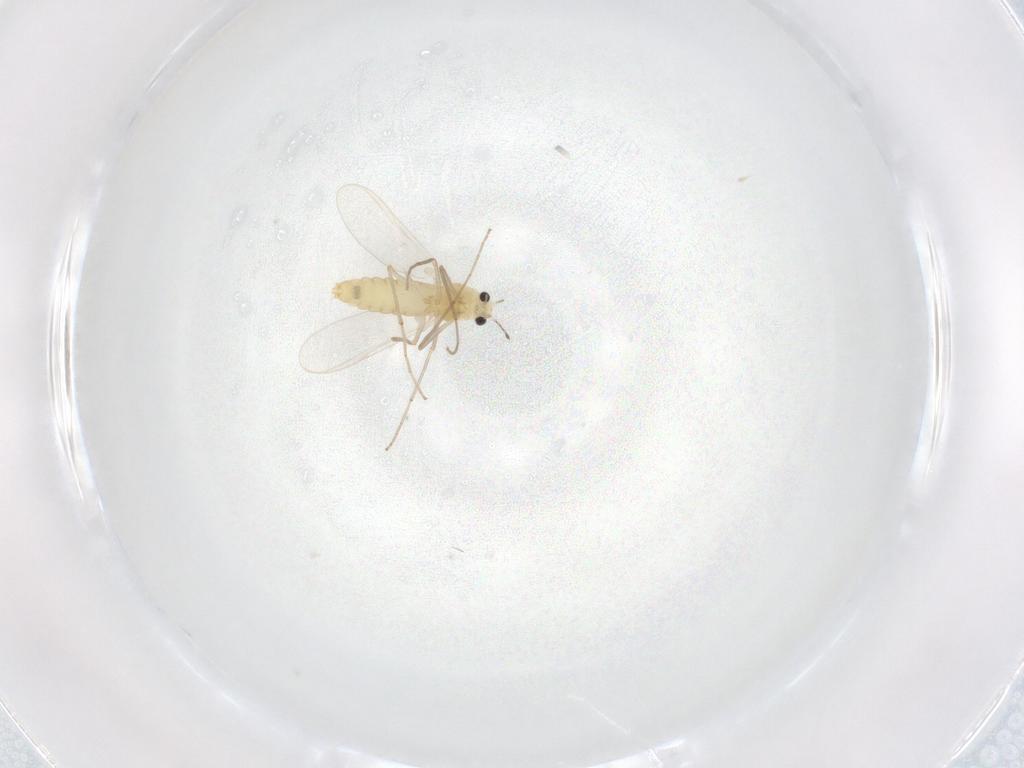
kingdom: Animalia
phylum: Arthropoda
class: Insecta
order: Diptera
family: Chironomidae
